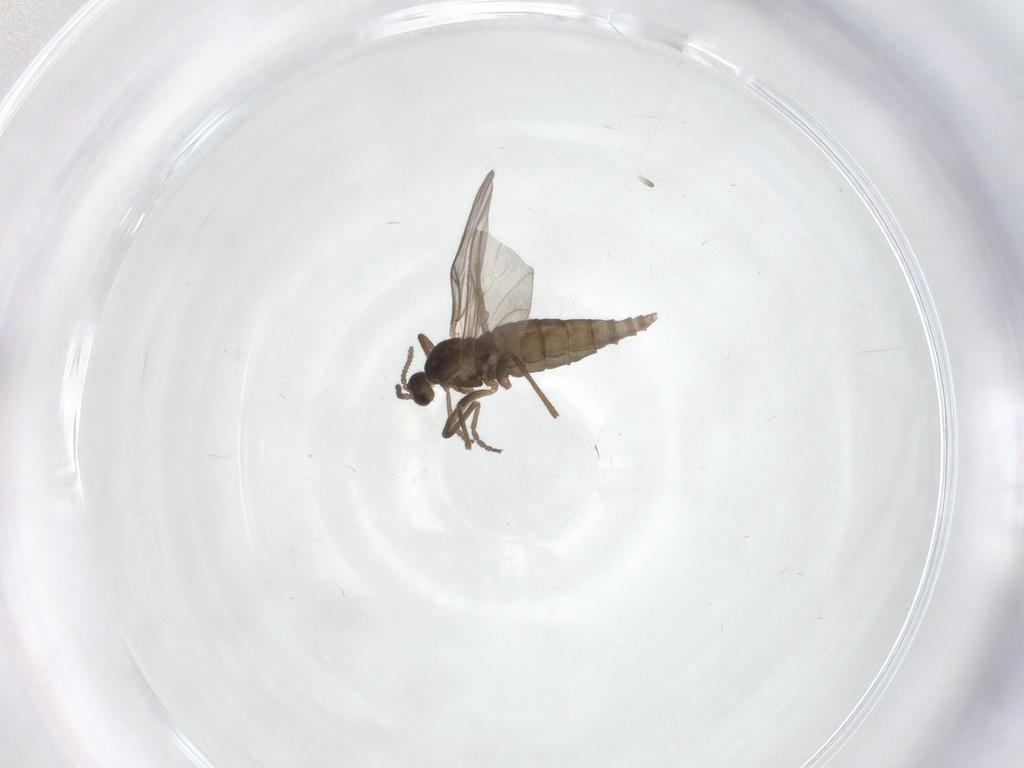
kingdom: Animalia
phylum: Arthropoda
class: Insecta
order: Diptera
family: Cecidomyiidae
